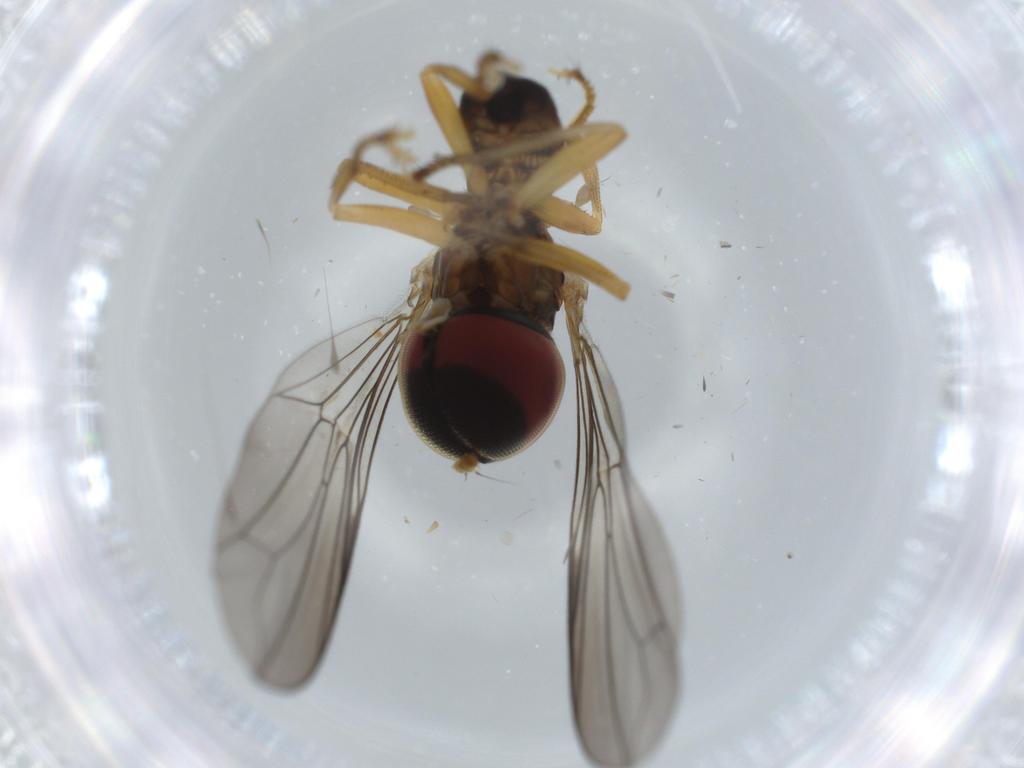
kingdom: Animalia
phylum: Arthropoda
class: Insecta
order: Diptera
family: Pipunculidae
